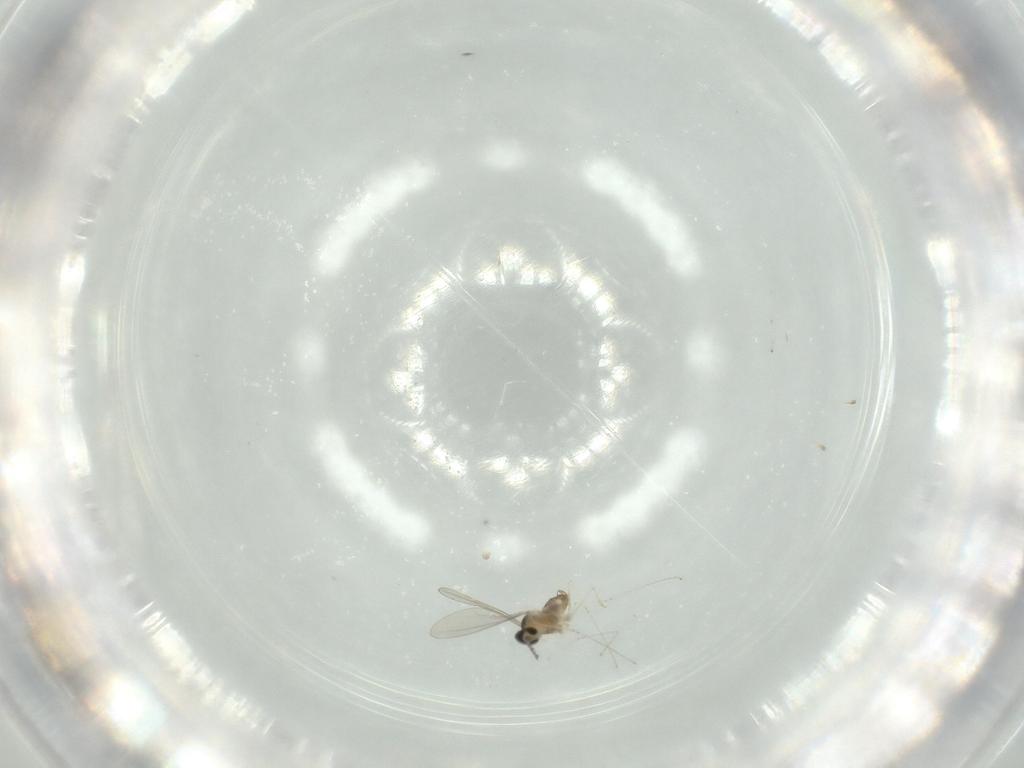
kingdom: Animalia
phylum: Arthropoda
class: Insecta
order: Diptera
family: Cecidomyiidae
